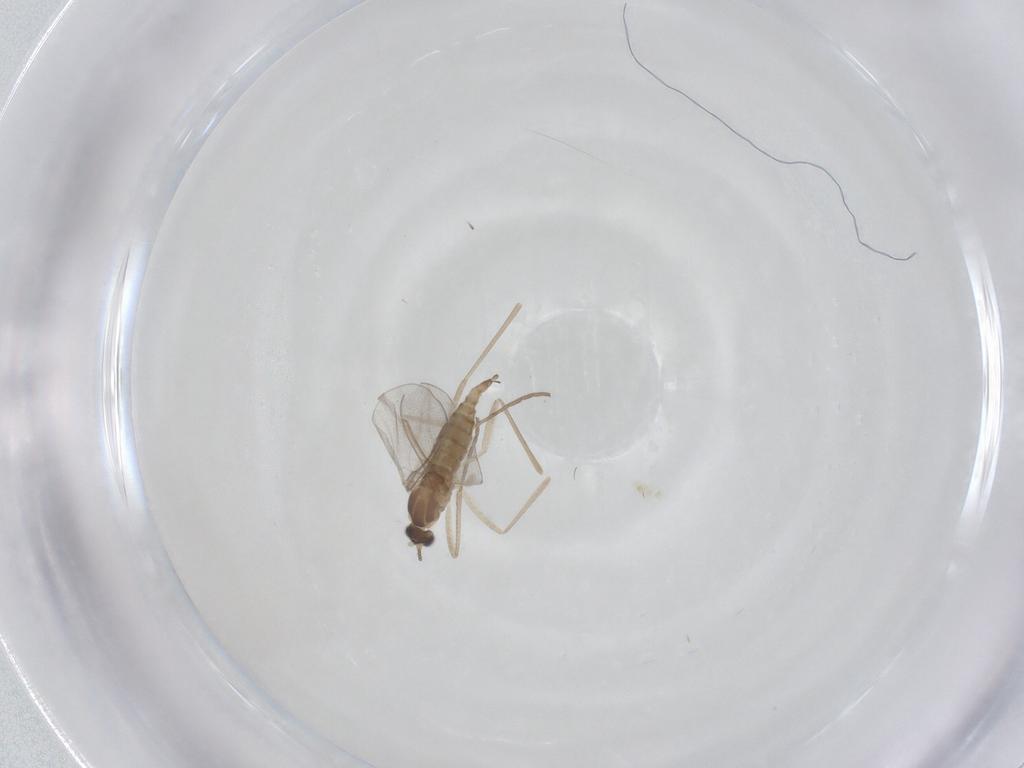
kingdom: Animalia
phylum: Arthropoda
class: Insecta
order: Diptera
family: Cecidomyiidae
